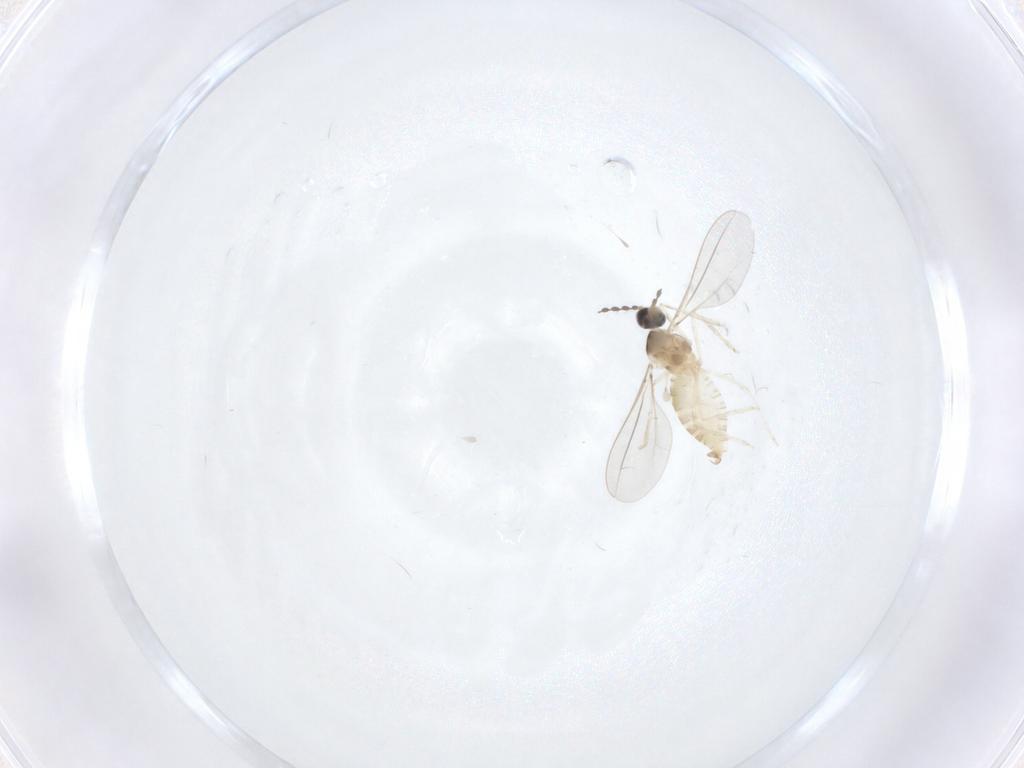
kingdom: Animalia
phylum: Arthropoda
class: Insecta
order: Diptera
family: Cecidomyiidae
